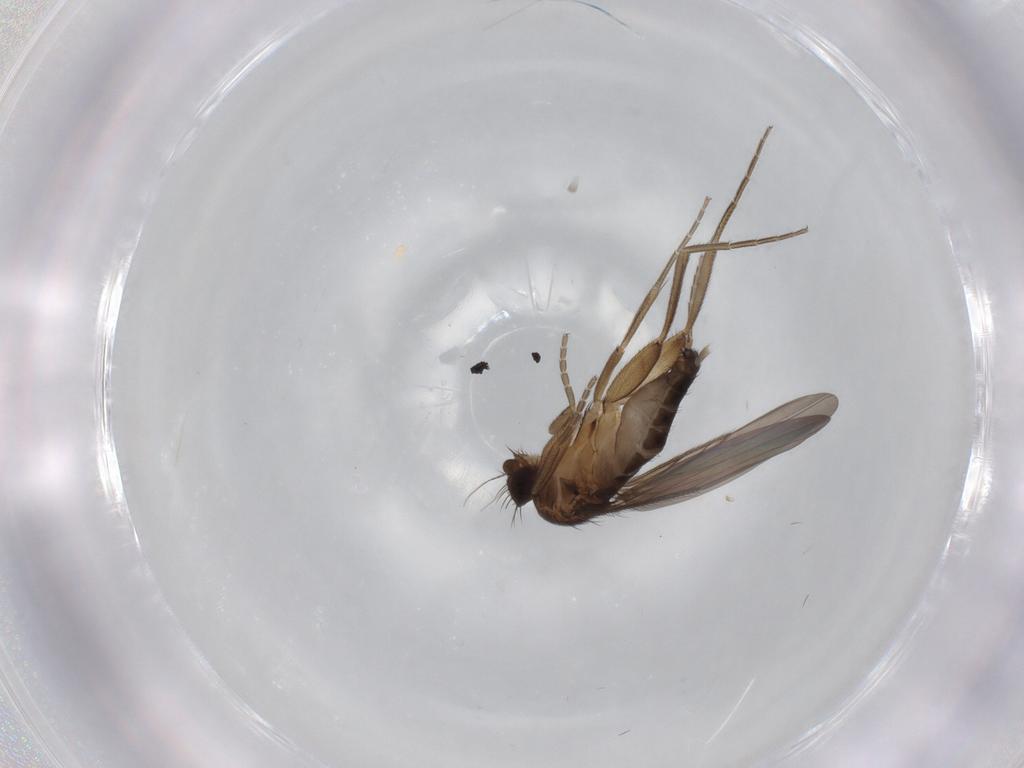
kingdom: Animalia
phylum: Arthropoda
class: Insecta
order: Diptera
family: Phoridae
